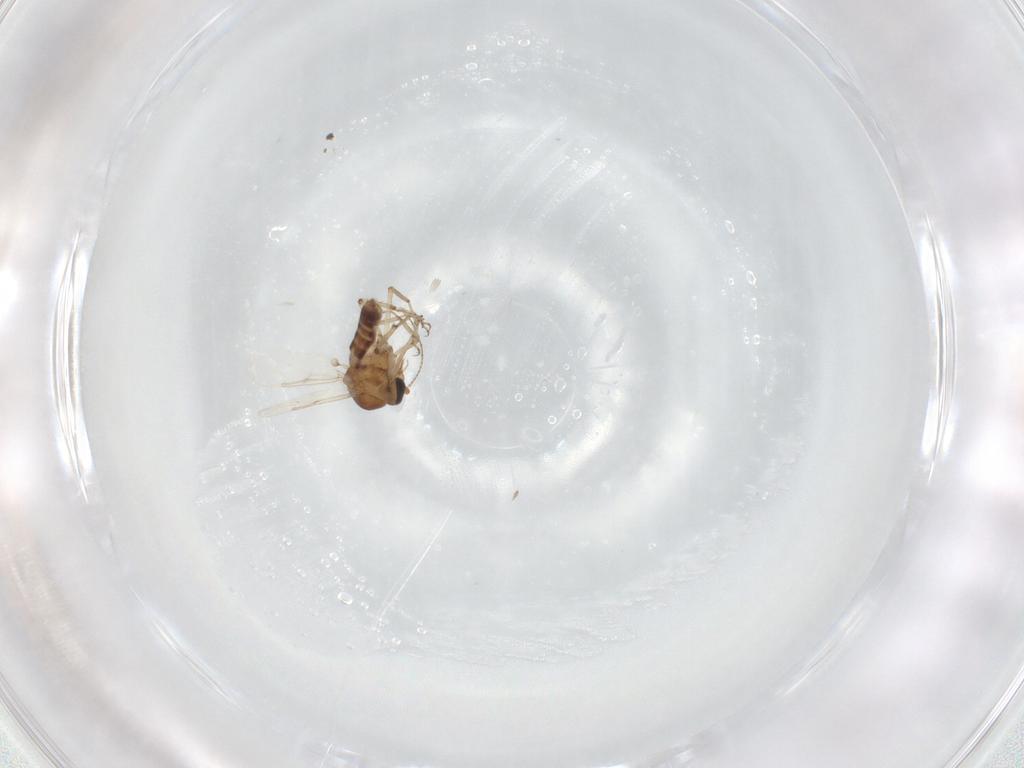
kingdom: Animalia
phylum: Arthropoda
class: Insecta
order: Diptera
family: Ceratopogonidae
